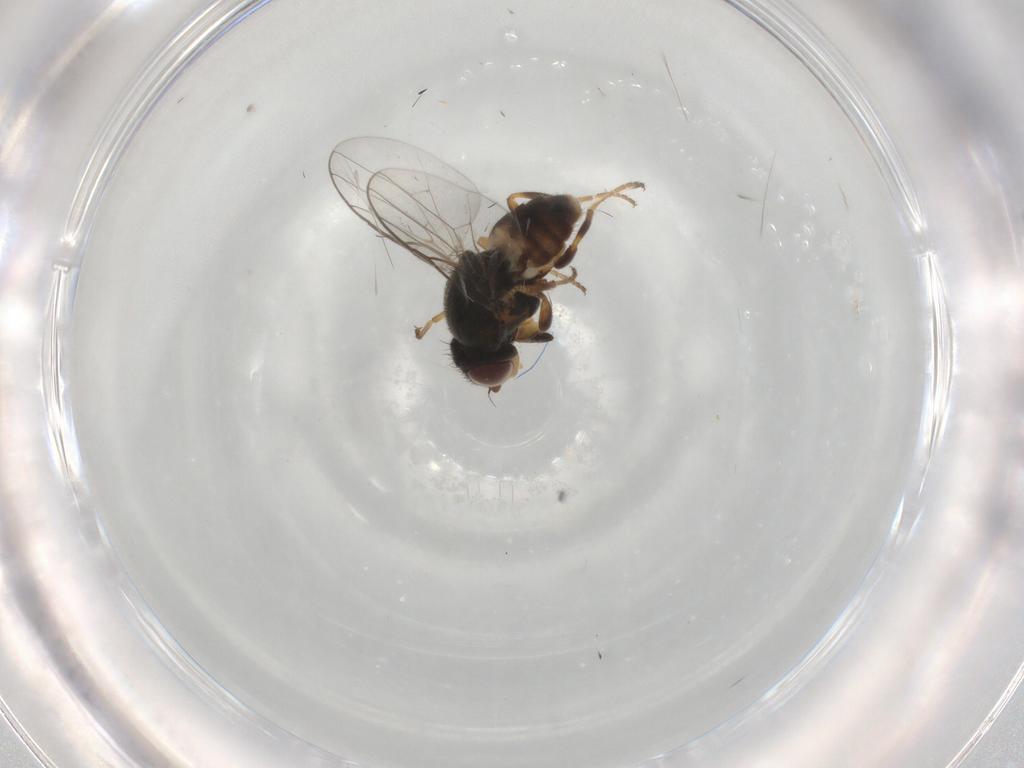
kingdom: Animalia
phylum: Arthropoda
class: Insecta
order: Diptera
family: Chloropidae
